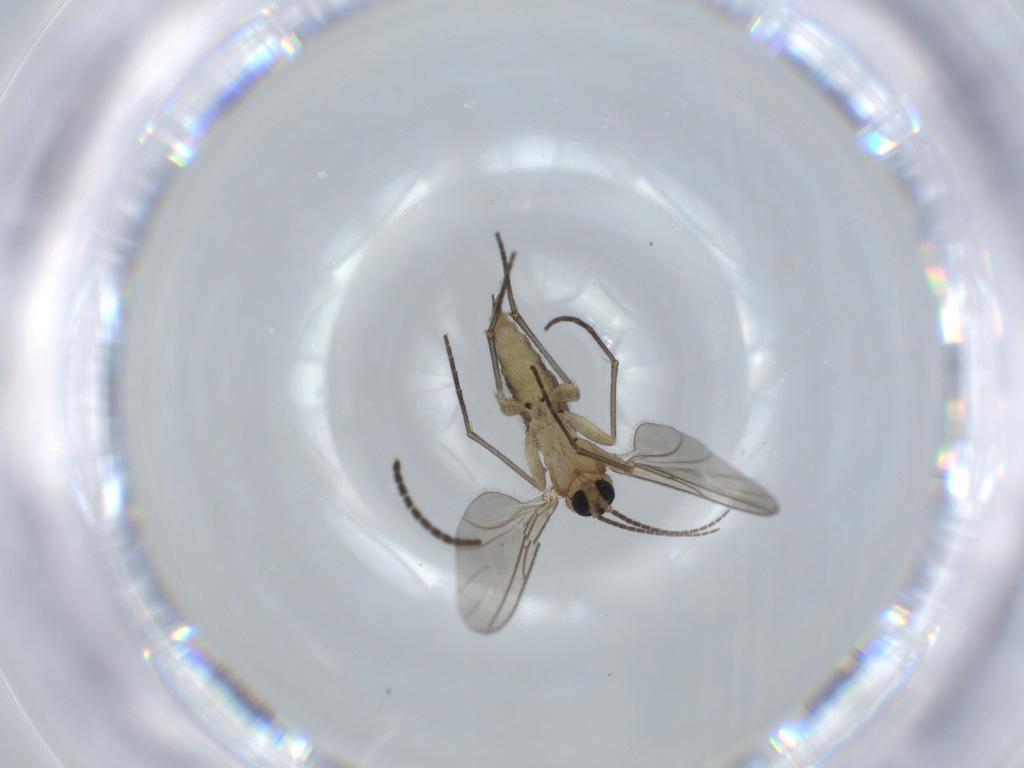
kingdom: Animalia
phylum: Arthropoda
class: Insecta
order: Diptera
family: Sciaridae
